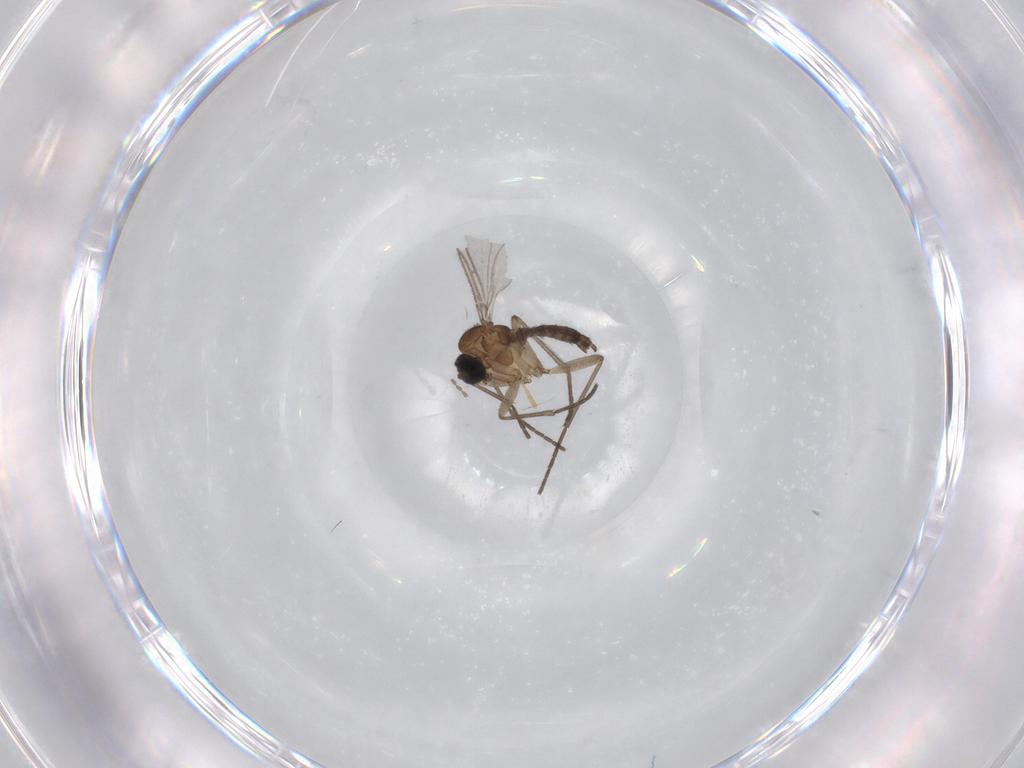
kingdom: Animalia
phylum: Arthropoda
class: Insecta
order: Diptera
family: Sciaridae
